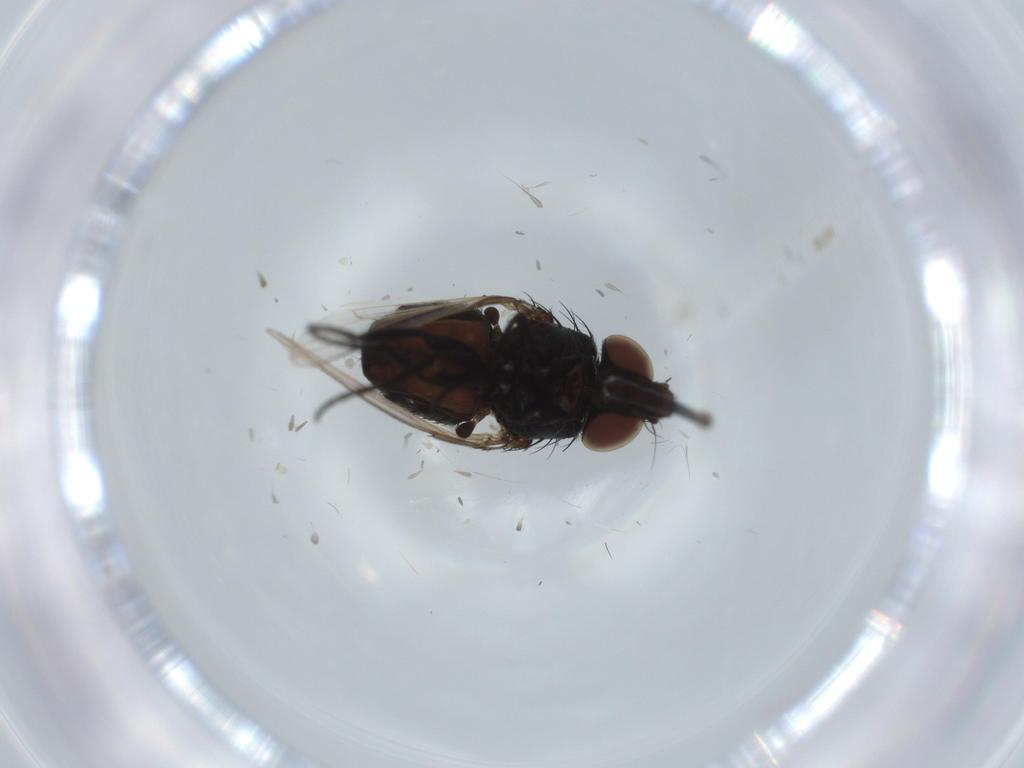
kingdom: Animalia
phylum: Arthropoda
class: Insecta
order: Diptera
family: Milichiidae
